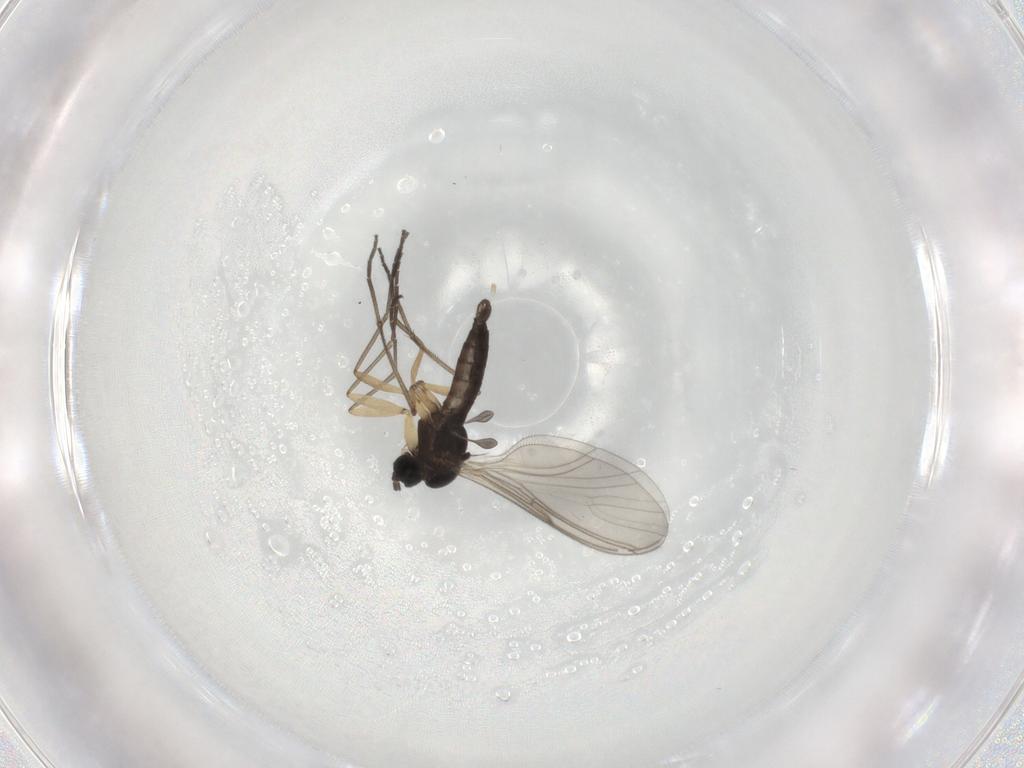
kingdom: Animalia
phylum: Arthropoda
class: Insecta
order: Diptera
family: Sciaridae
